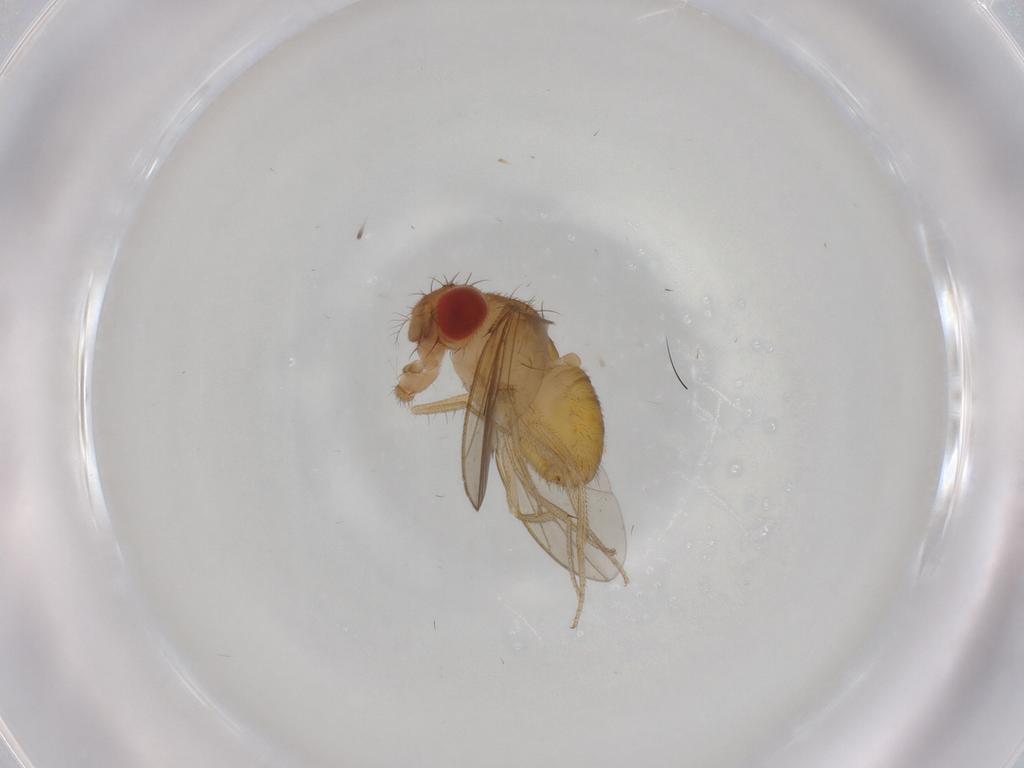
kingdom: Animalia
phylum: Arthropoda
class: Insecta
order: Diptera
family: Drosophilidae
